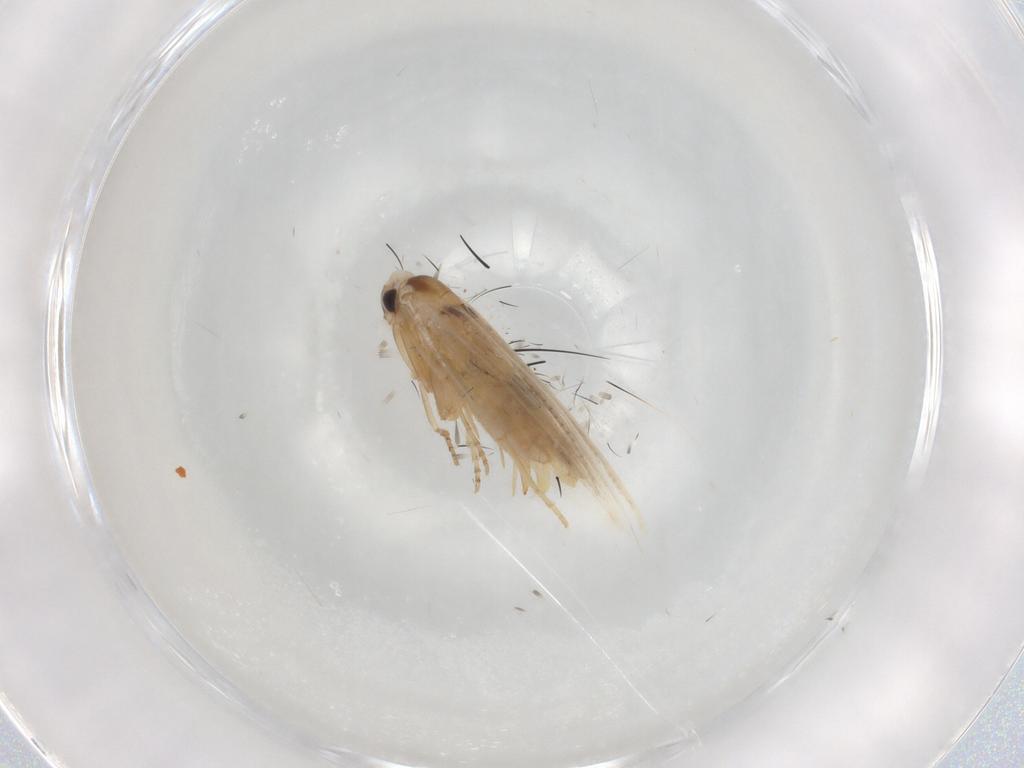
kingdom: Animalia
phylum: Arthropoda
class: Insecta
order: Lepidoptera
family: Bucculatricidae
